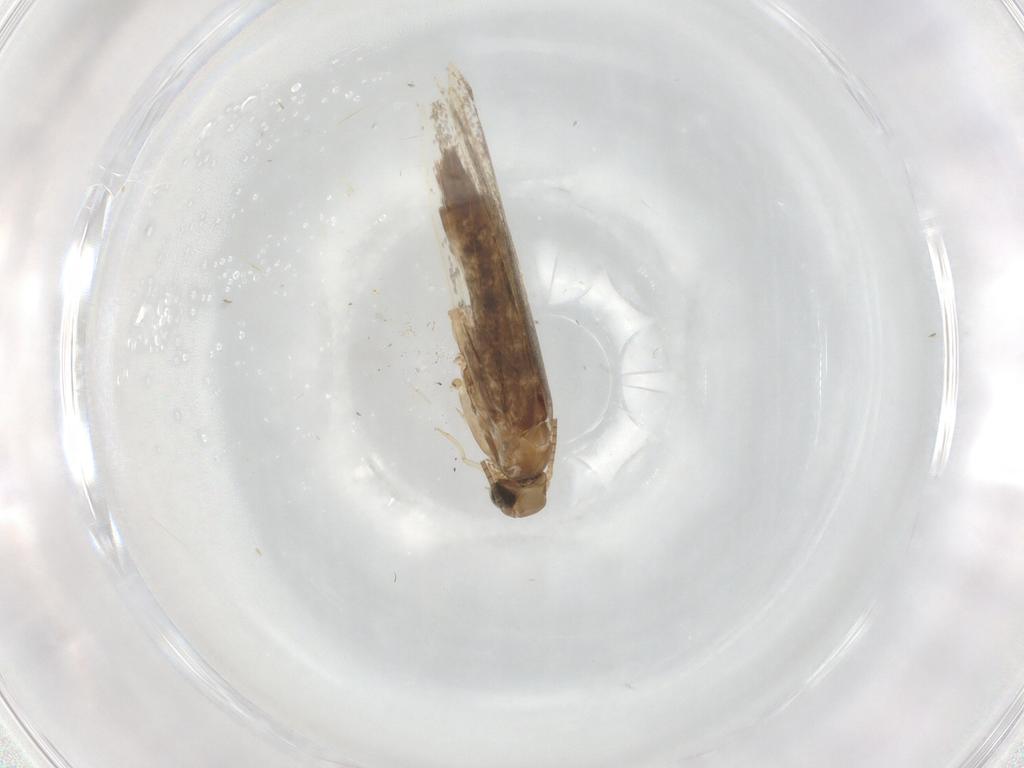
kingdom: Animalia
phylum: Arthropoda
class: Insecta
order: Lepidoptera
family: Gracillariidae
